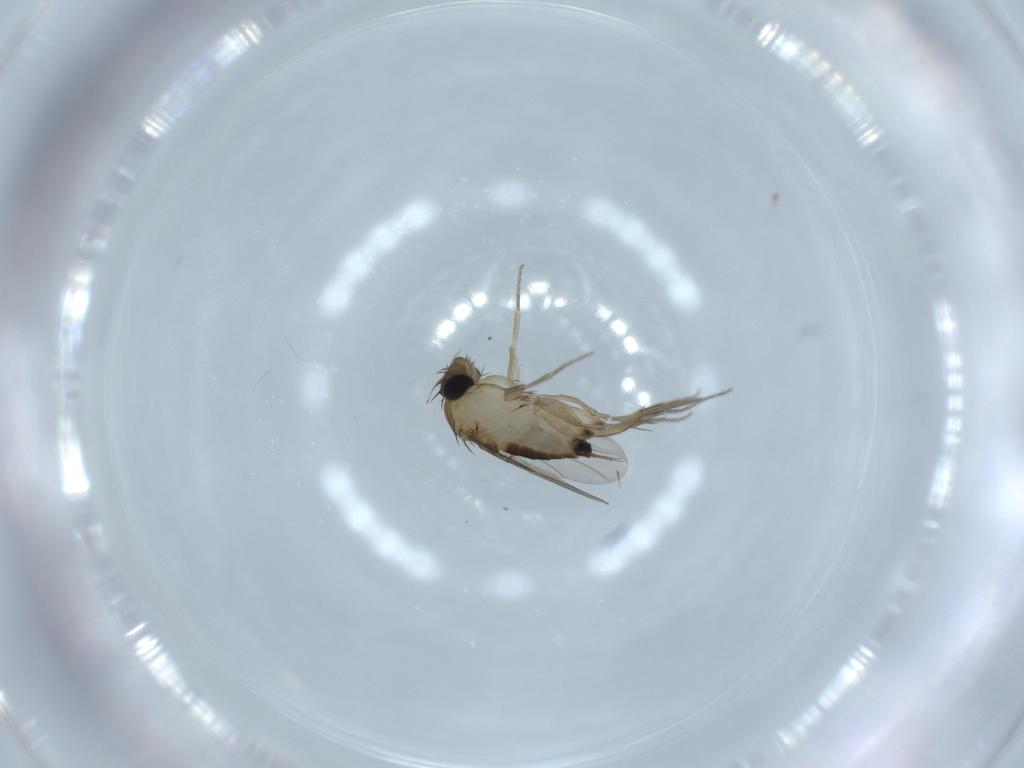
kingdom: Animalia
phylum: Arthropoda
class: Insecta
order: Diptera
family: Phoridae
